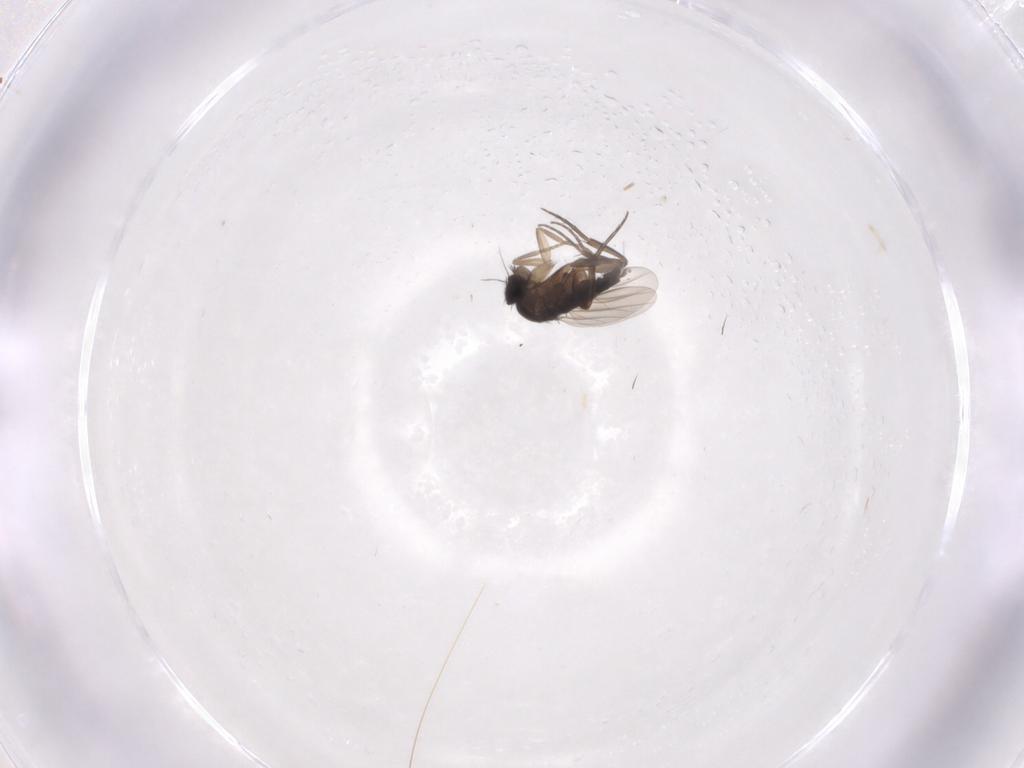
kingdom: Animalia
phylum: Arthropoda
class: Insecta
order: Diptera
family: Phoridae
